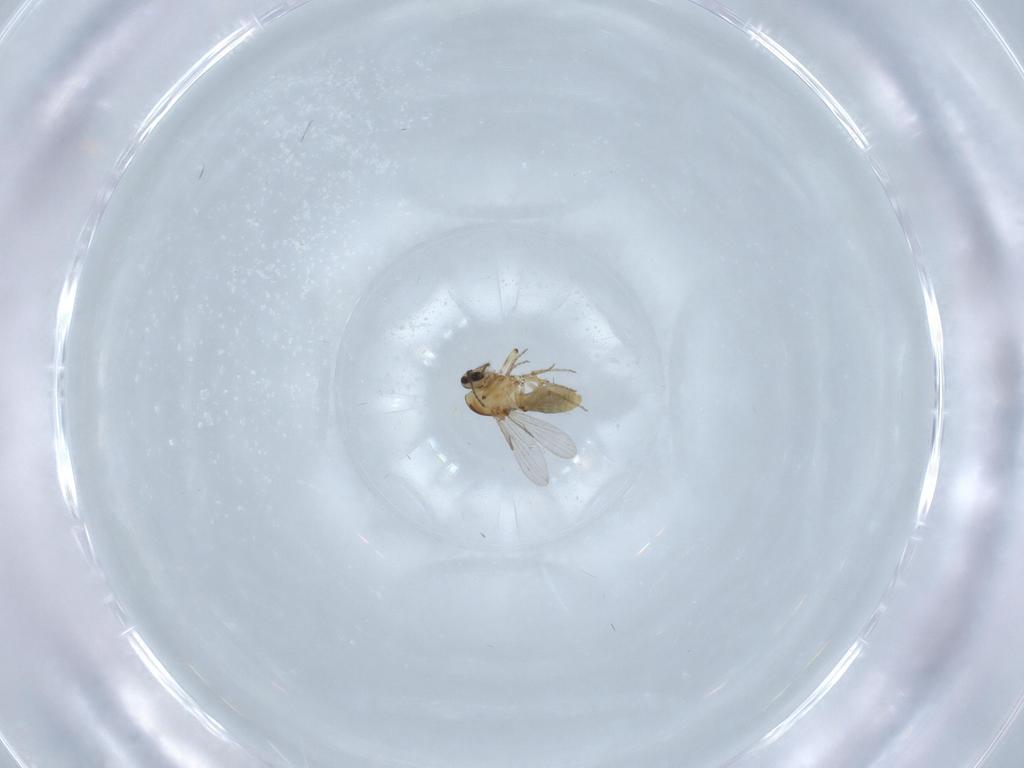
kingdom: Animalia
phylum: Arthropoda
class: Insecta
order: Diptera
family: Ceratopogonidae
